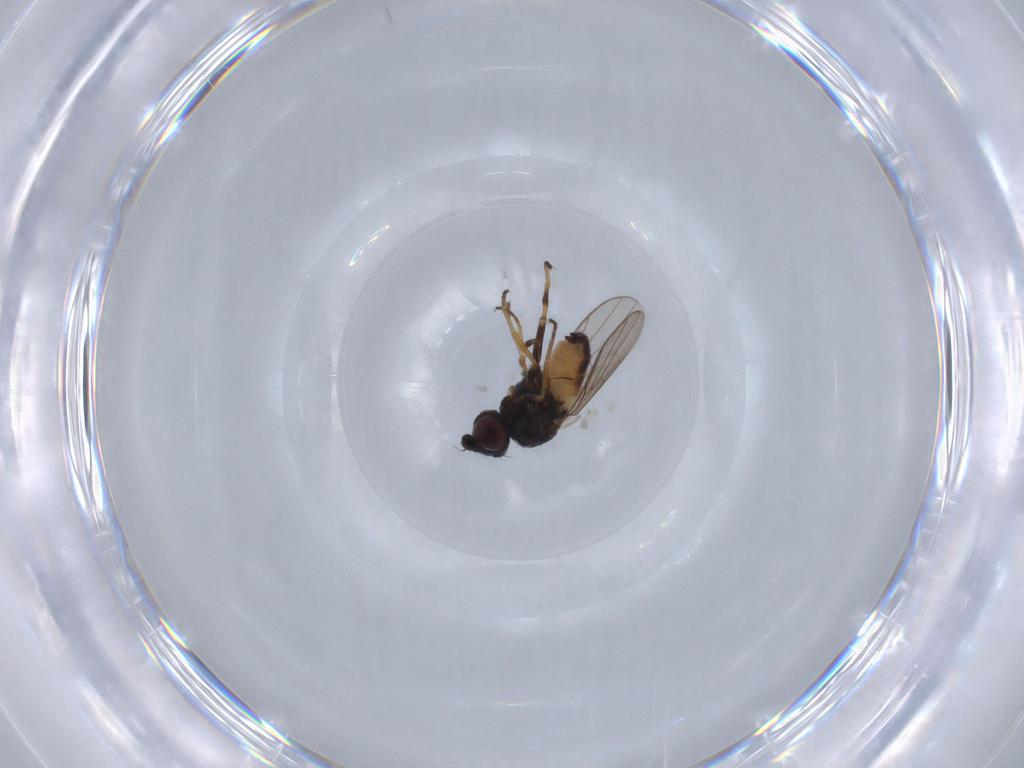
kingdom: Animalia
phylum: Arthropoda
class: Insecta
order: Diptera
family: Chloropidae
